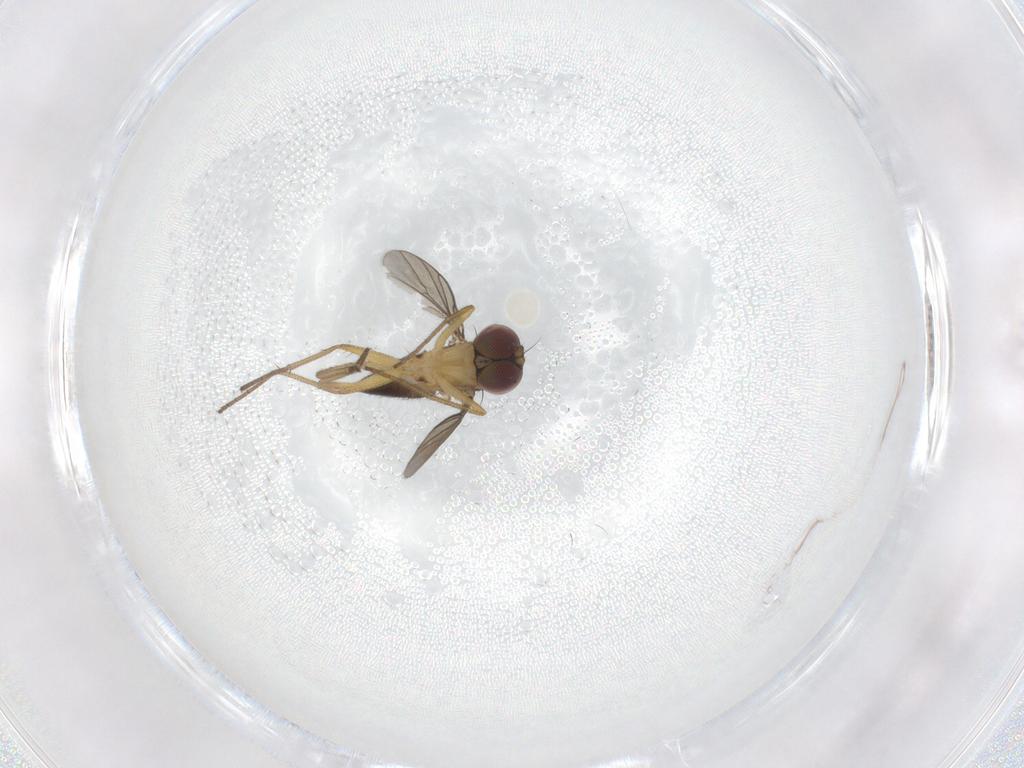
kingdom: Animalia
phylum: Arthropoda
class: Insecta
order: Diptera
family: Dolichopodidae
